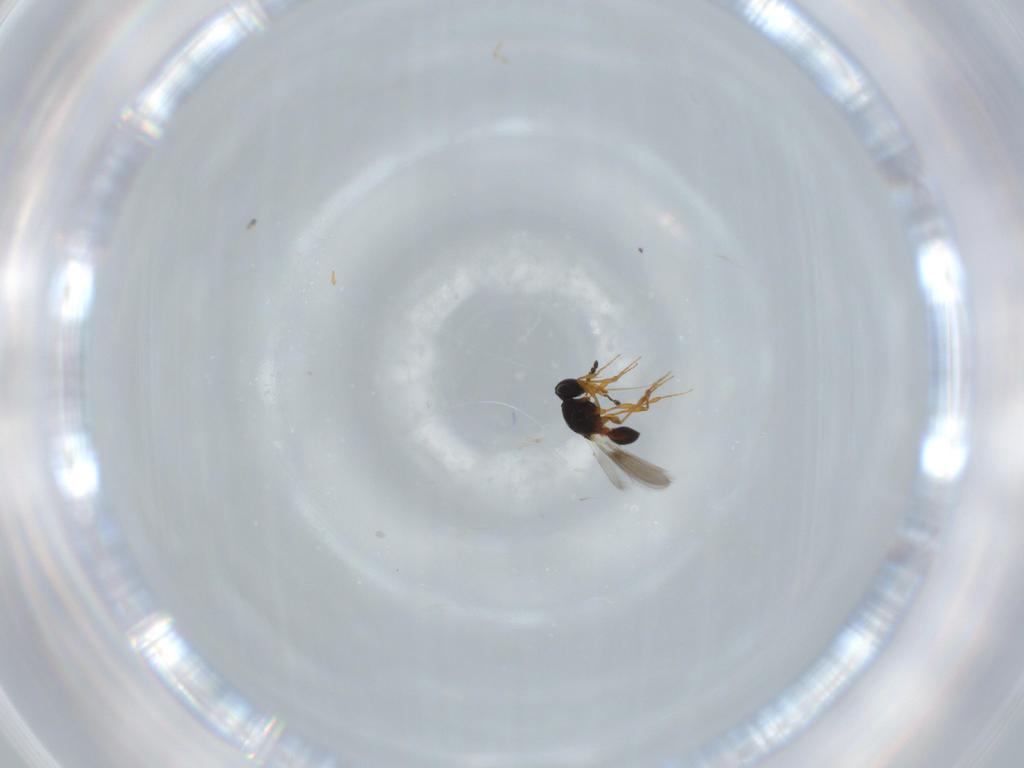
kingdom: Animalia
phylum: Arthropoda
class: Insecta
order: Hymenoptera
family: Platygastridae
